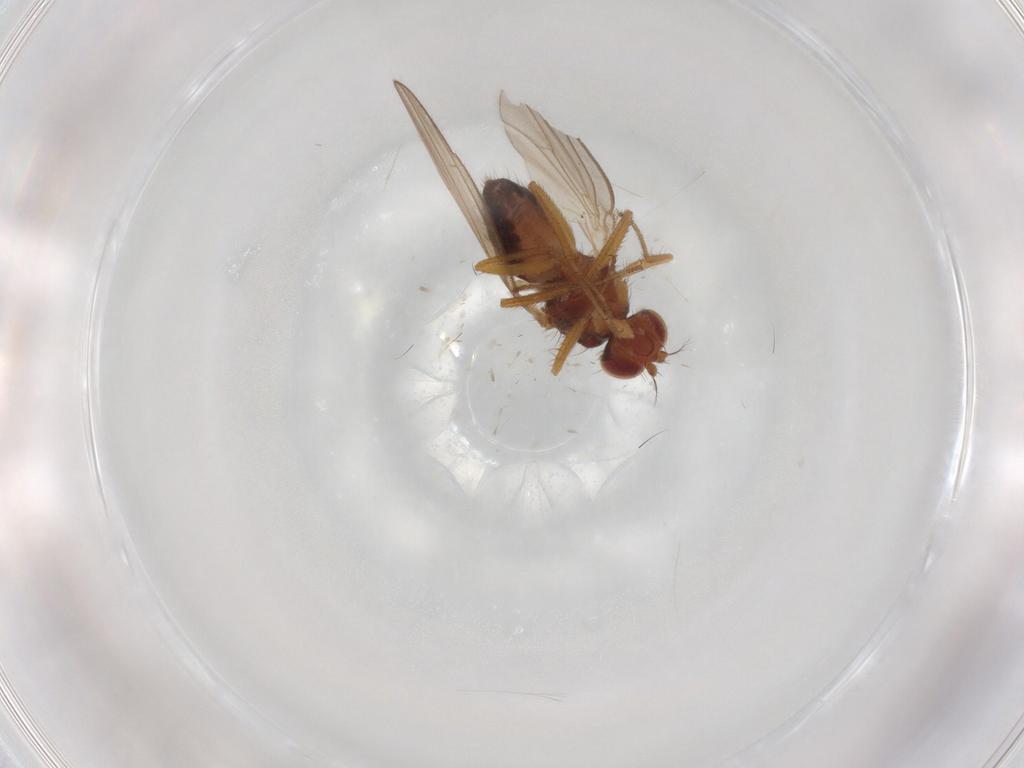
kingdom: Animalia
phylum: Arthropoda
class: Insecta
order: Diptera
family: Drosophilidae
